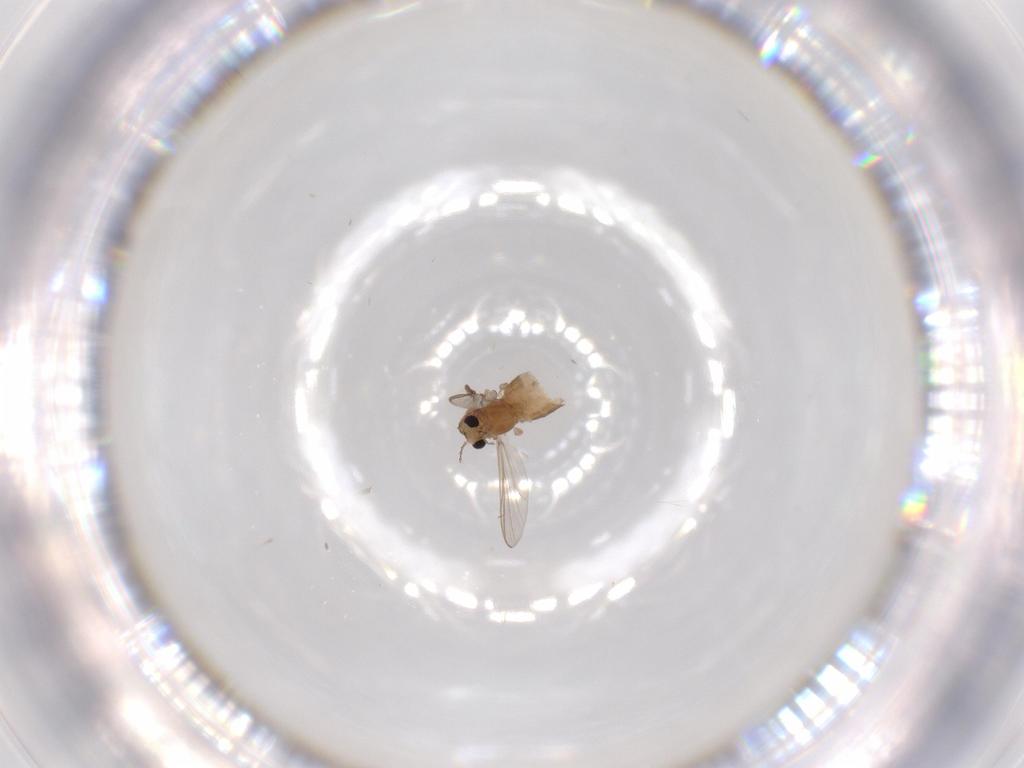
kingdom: Animalia
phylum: Arthropoda
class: Insecta
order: Diptera
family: Chironomidae
